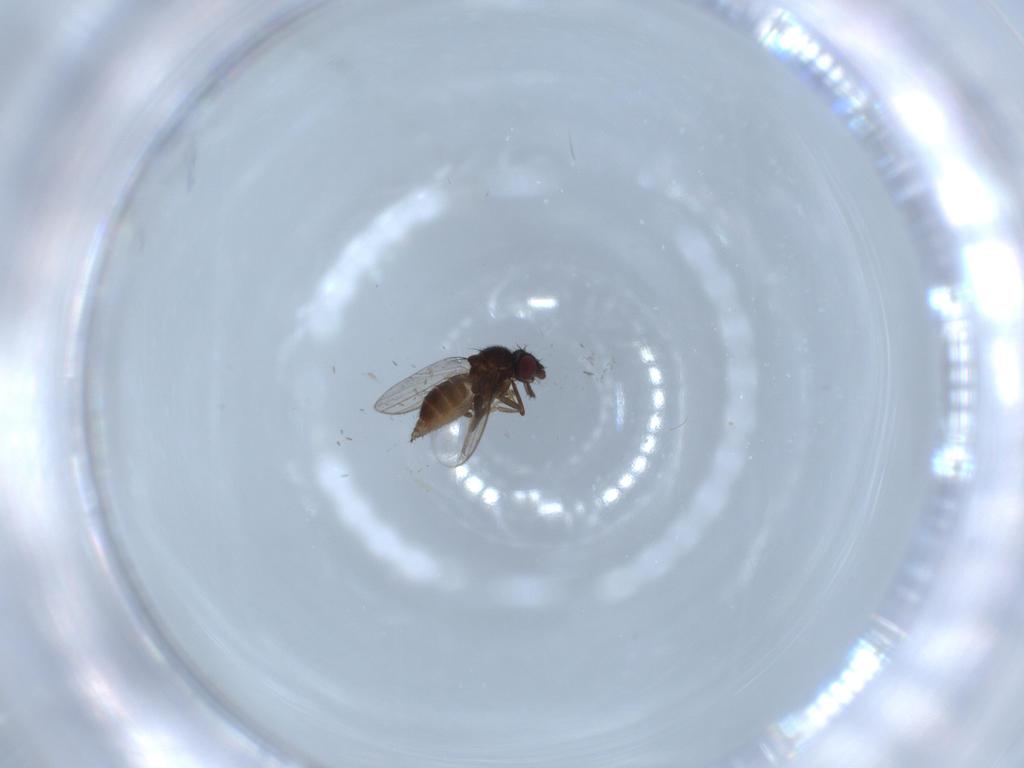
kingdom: Animalia
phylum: Arthropoda
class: Insecta
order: Diptera
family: Milichiidae
